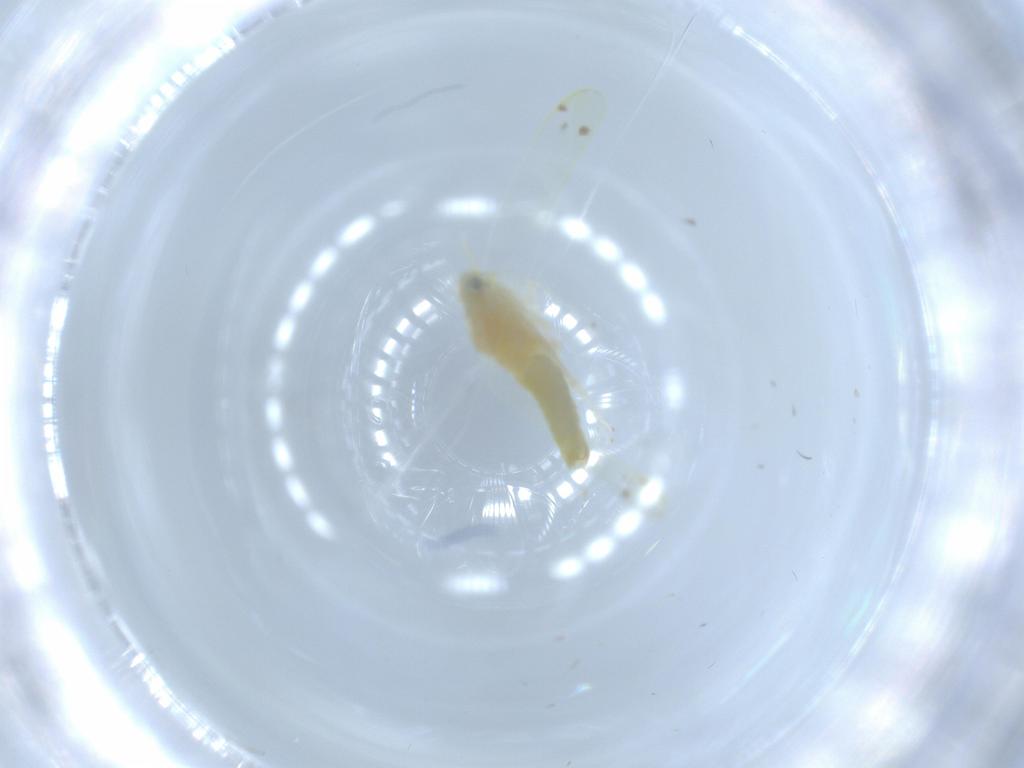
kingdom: Animalia
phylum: Arthropoda
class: Insecta
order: Hemiptera
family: Cicadellidae
